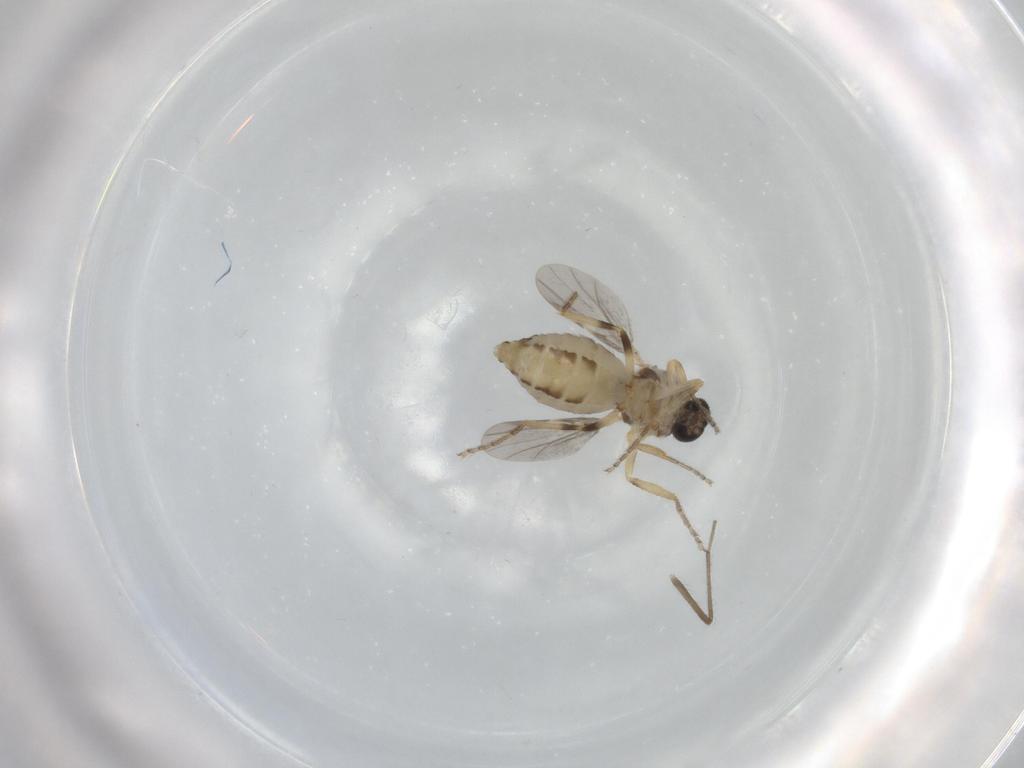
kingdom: Animalia
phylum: Arthropoda
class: Insecta
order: Diptera
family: Ceratopogonidae
